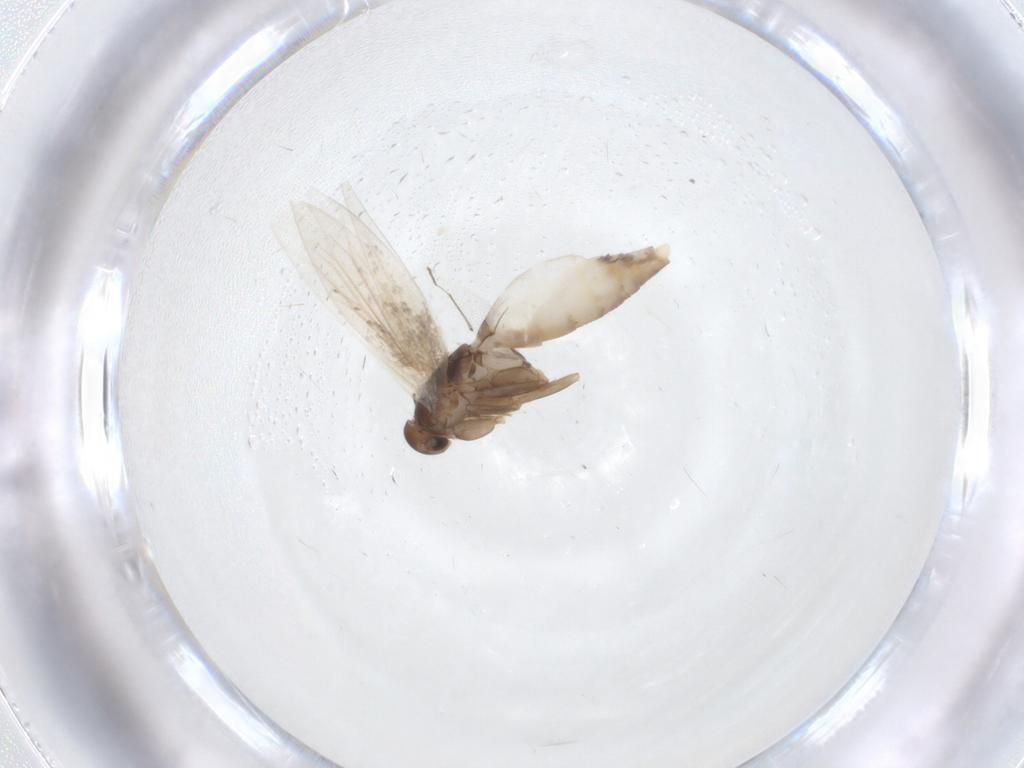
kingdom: Animalia
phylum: Arthropoda
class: Insecta
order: Lepidoptera
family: Elachistidae
